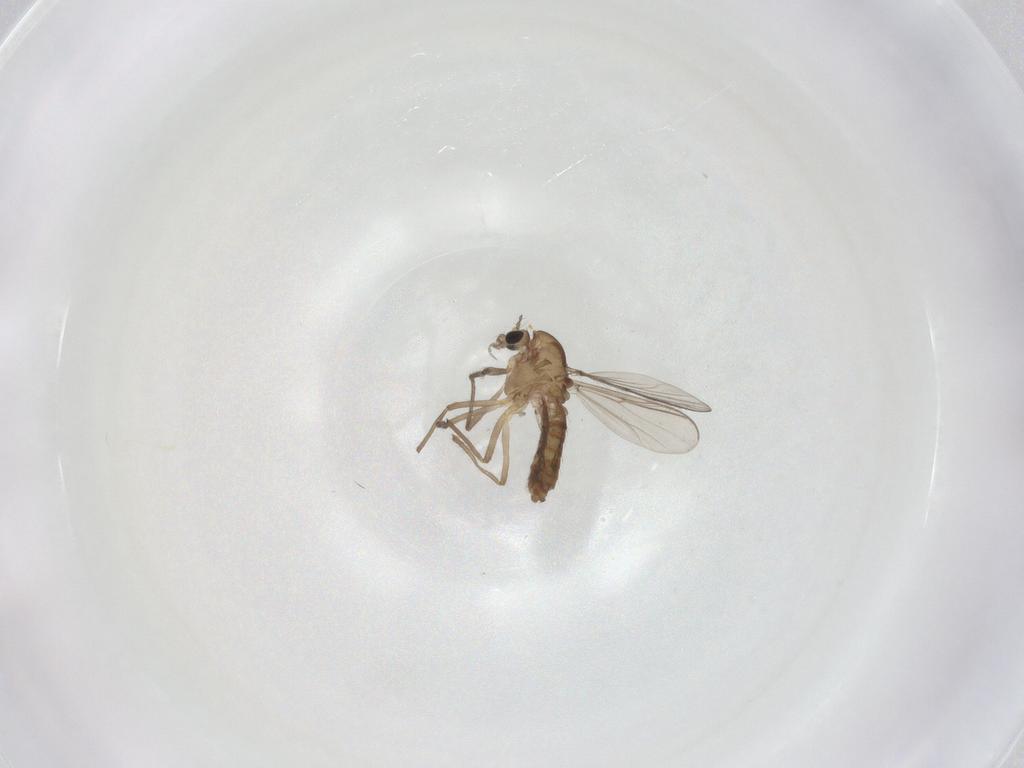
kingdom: Animalia
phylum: Arthropoda
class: Insecta
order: Diptera
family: Chironomidae
